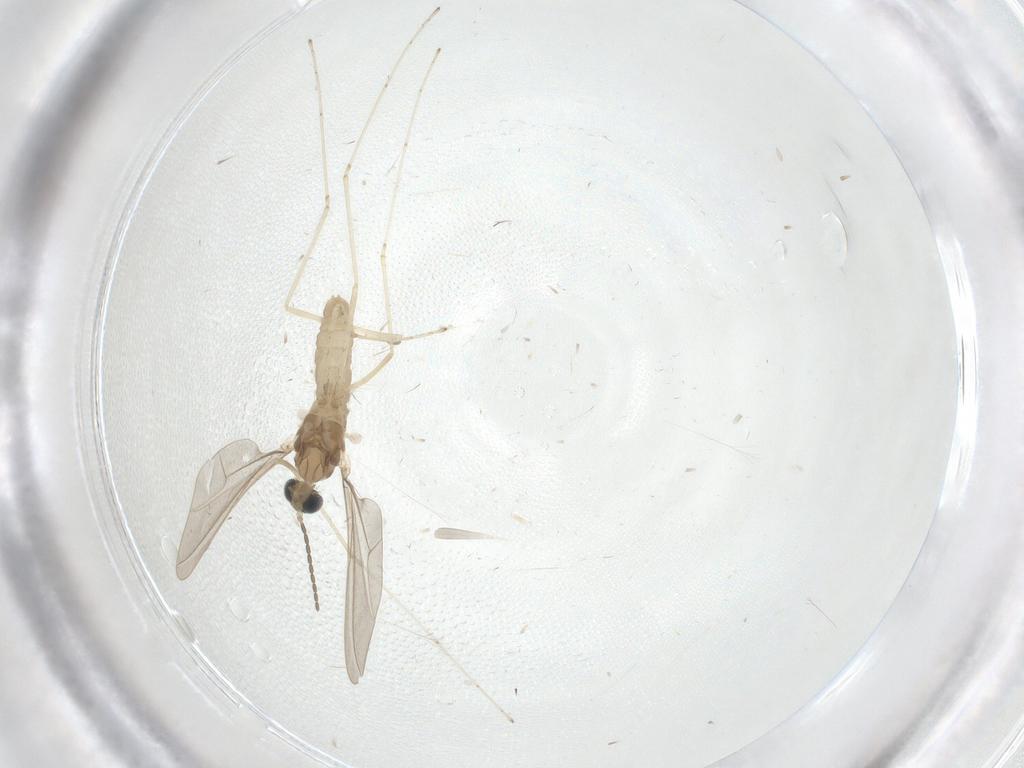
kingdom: Animalia
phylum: Arthropoda
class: Insecta
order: Diptera
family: Cecidomyiidae
